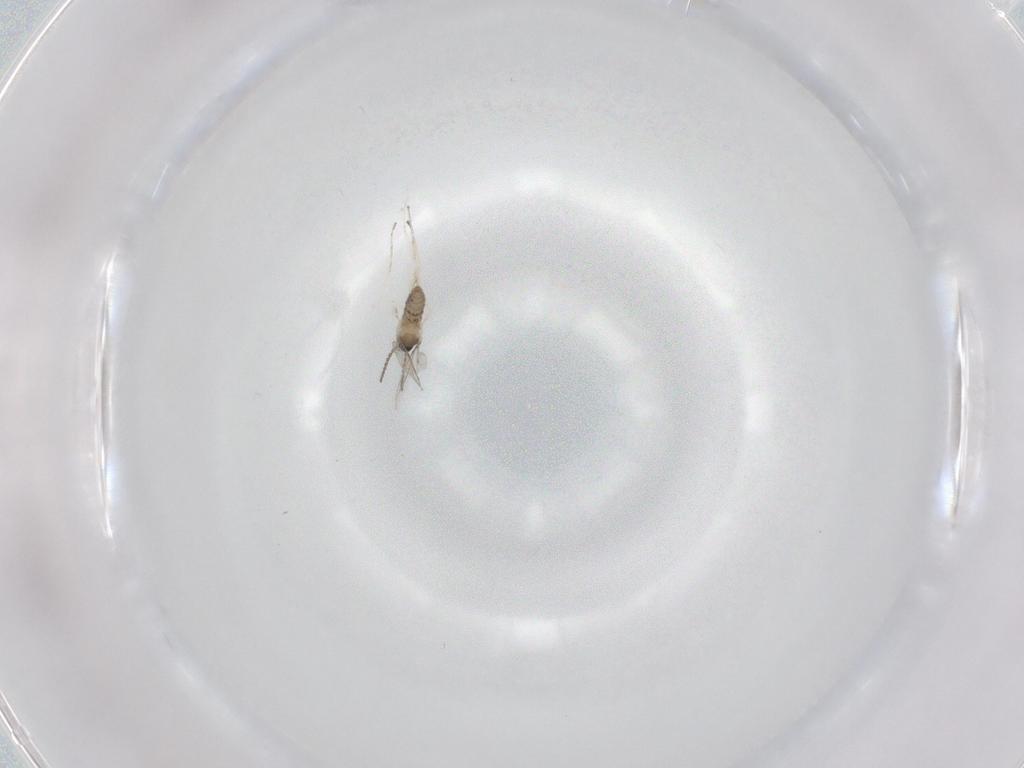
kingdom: Animalia
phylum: Arthropoda
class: Insecta
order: Diptera
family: Cecidomyiidae
